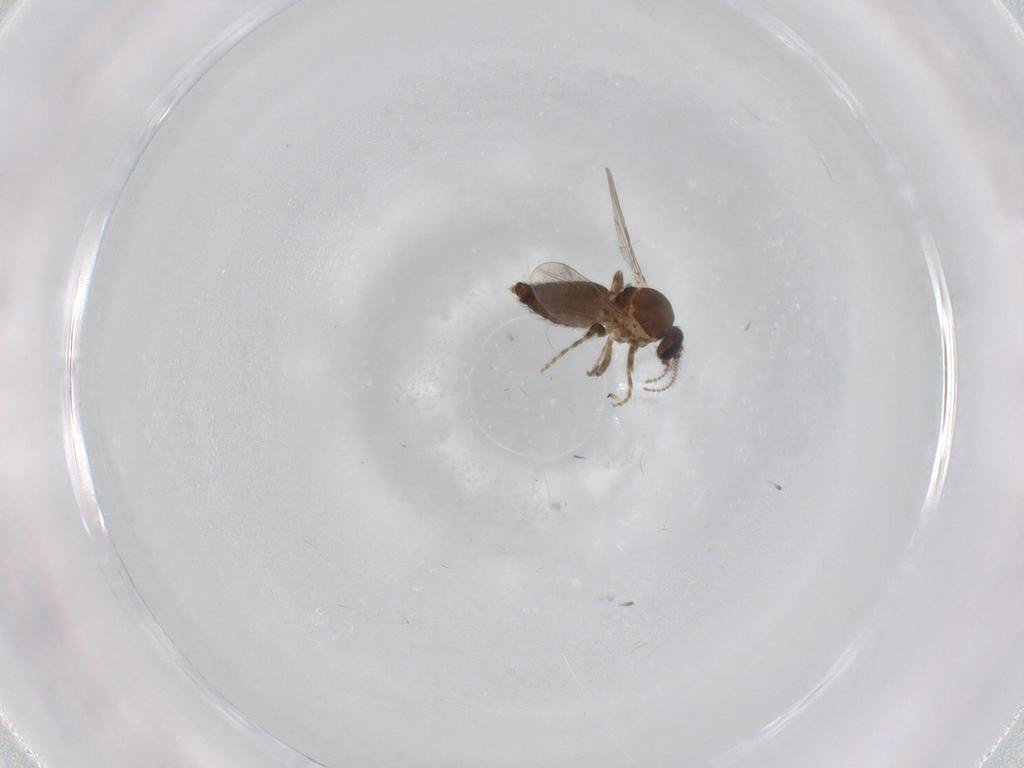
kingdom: Animalia
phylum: Arthropoda
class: Insecta
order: Diptera
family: Ceratopogonidae
